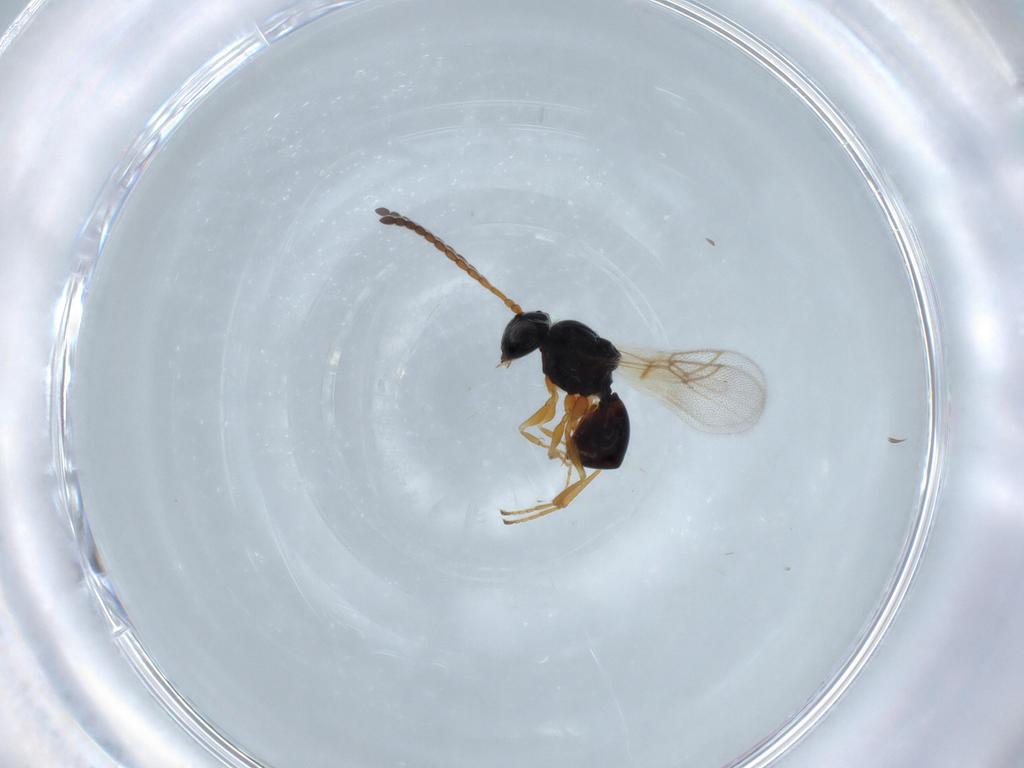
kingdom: Animalia
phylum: Arthropoda
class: Insecta
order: Hymenoptera
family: Figitidae
